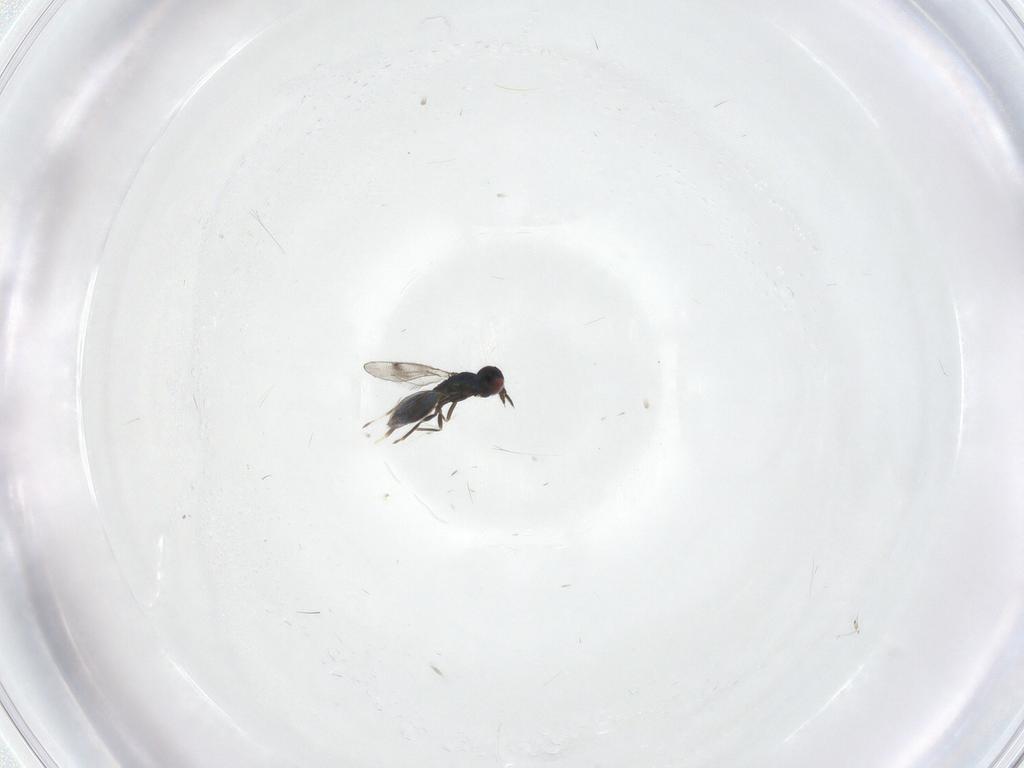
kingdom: Animalia
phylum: Arthropoda
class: Insecta
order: Hymenoptera
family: Eulophidae
